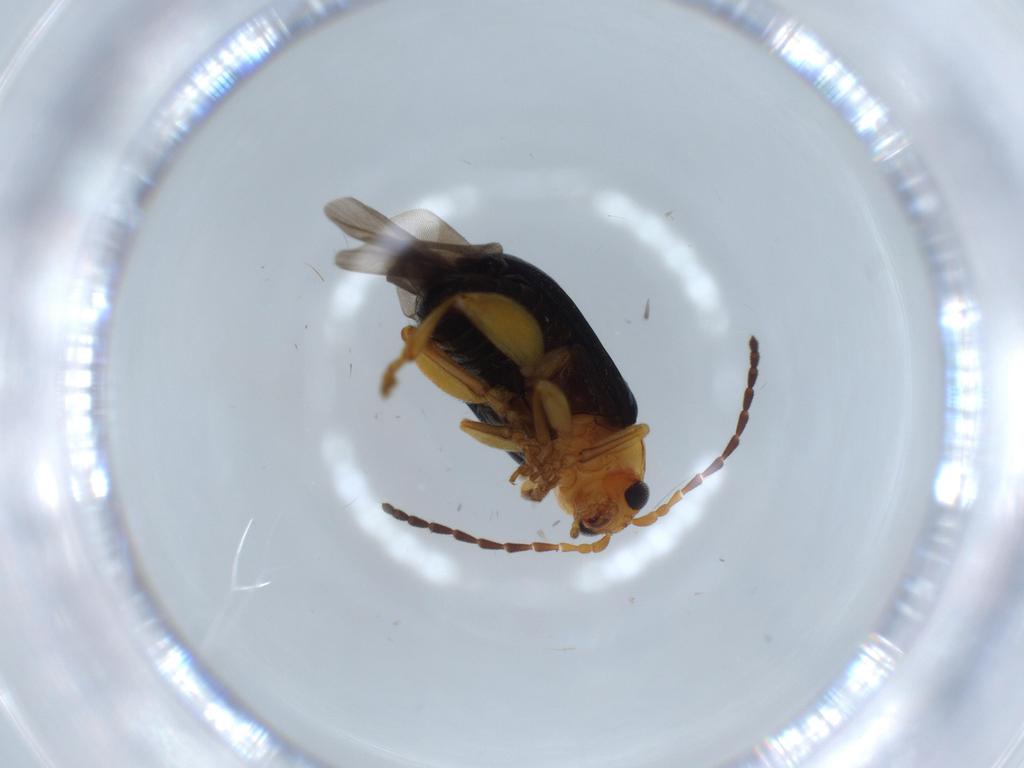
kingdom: Animalia
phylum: Arthropoda
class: Insecta
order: Coleoptera
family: Chrysomelidae
